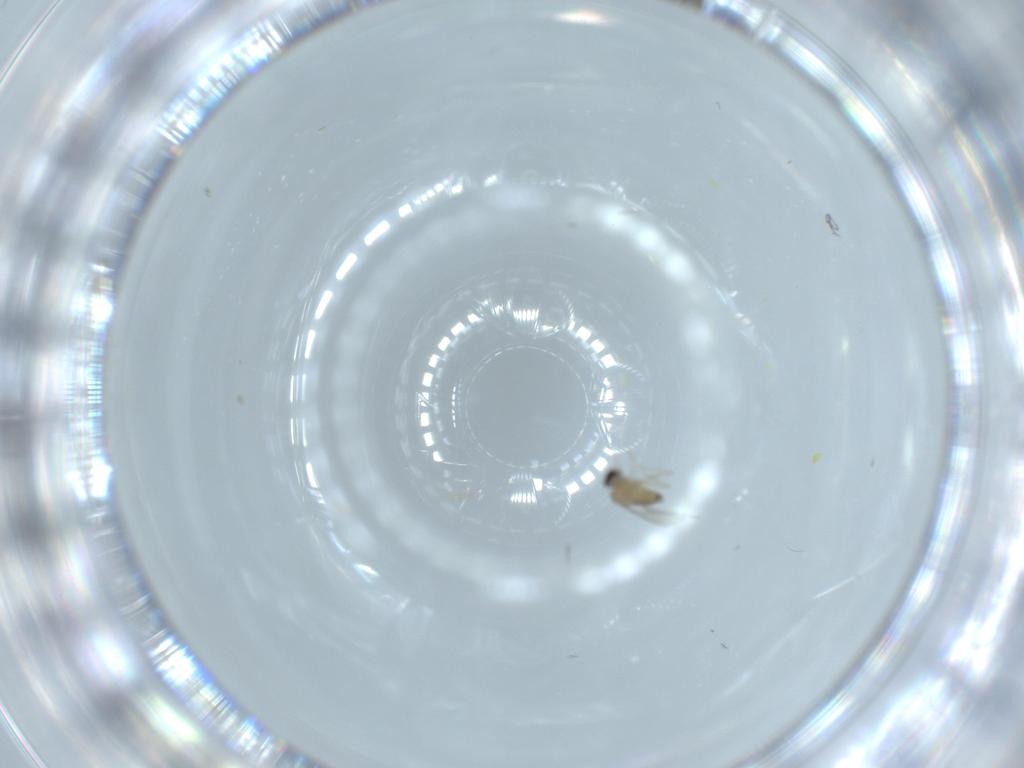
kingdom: Animalia
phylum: Arthropoda
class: Insecta
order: Diptera
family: Cecidomyiidae
